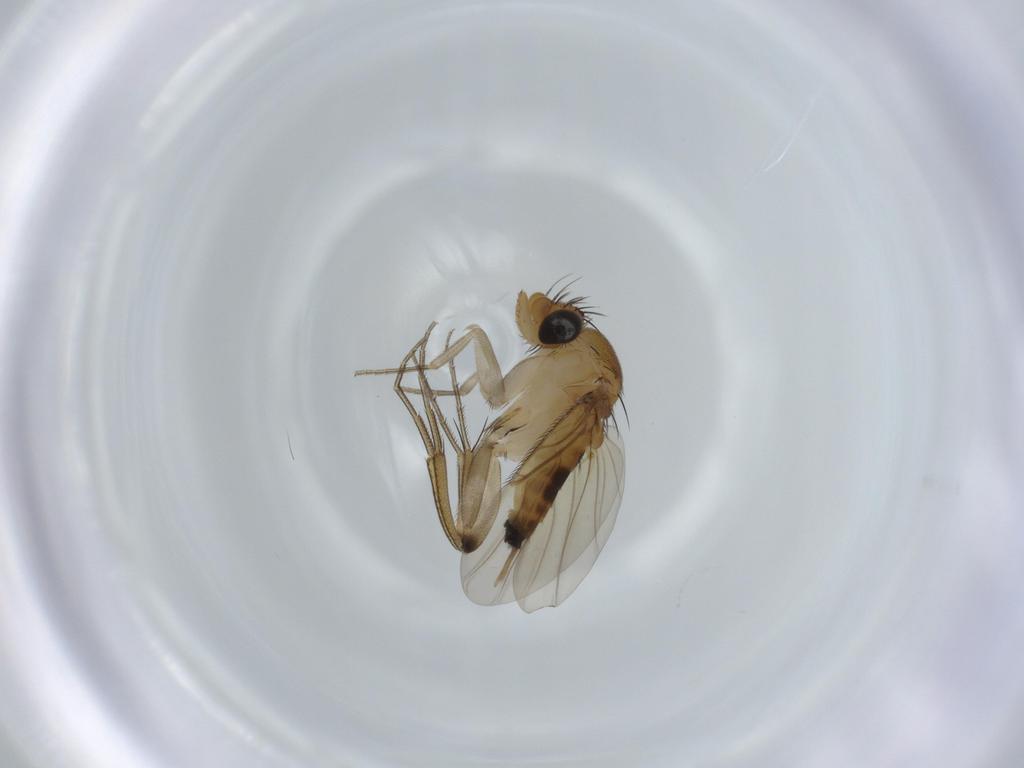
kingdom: Animalia
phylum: Arthropoda
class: Insecta
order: Diptera
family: Phoridae
